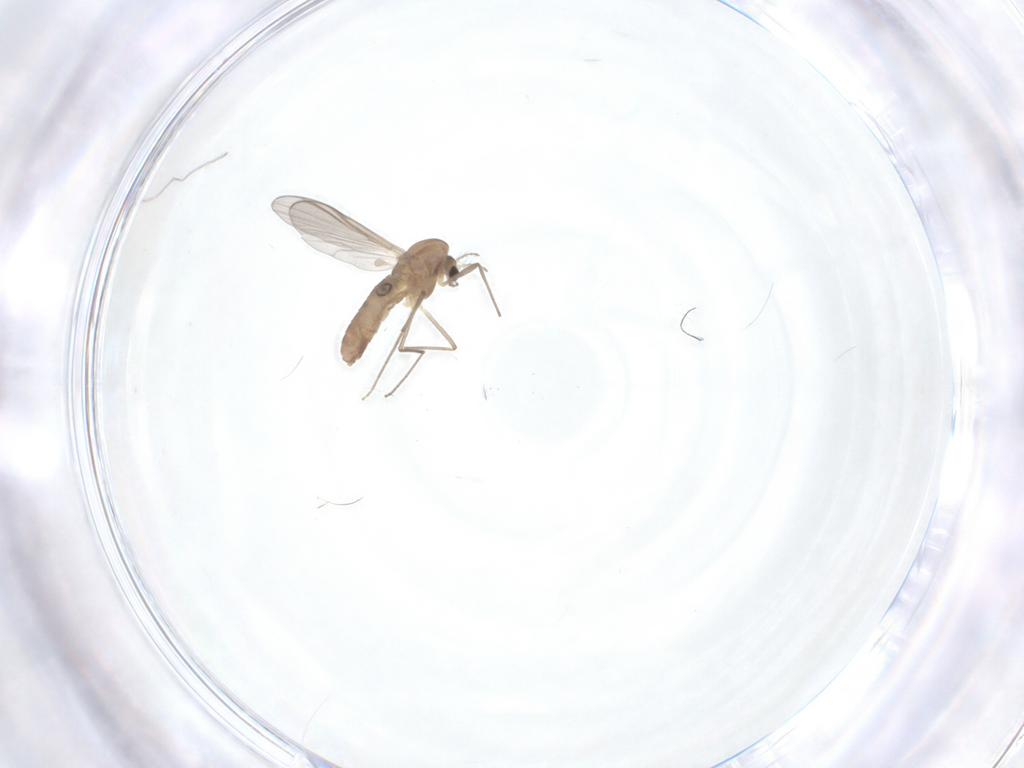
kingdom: Animalia
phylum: Arthropoda
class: Insecta
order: Diptera
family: Chironomidae
